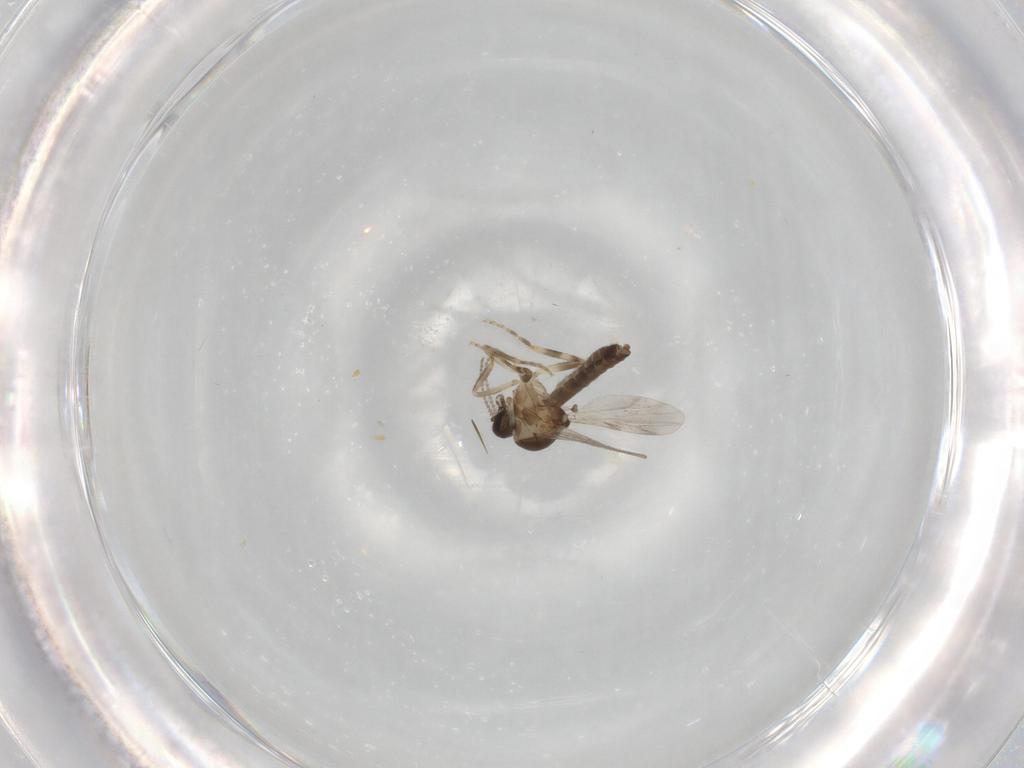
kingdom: Animalia
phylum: Arthropoda
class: Insecta
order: Diptera
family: Ceratopogonidae
